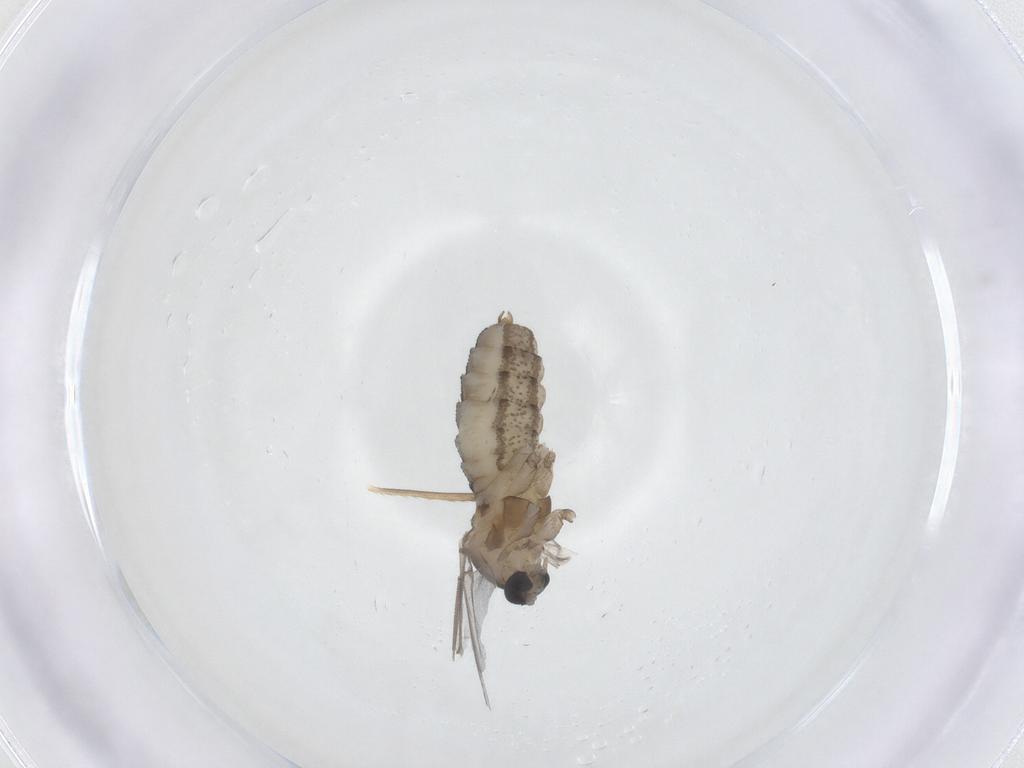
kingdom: Animalia
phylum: Arthropoda
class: Insecta
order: Diptera
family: Cecidomyiidae
